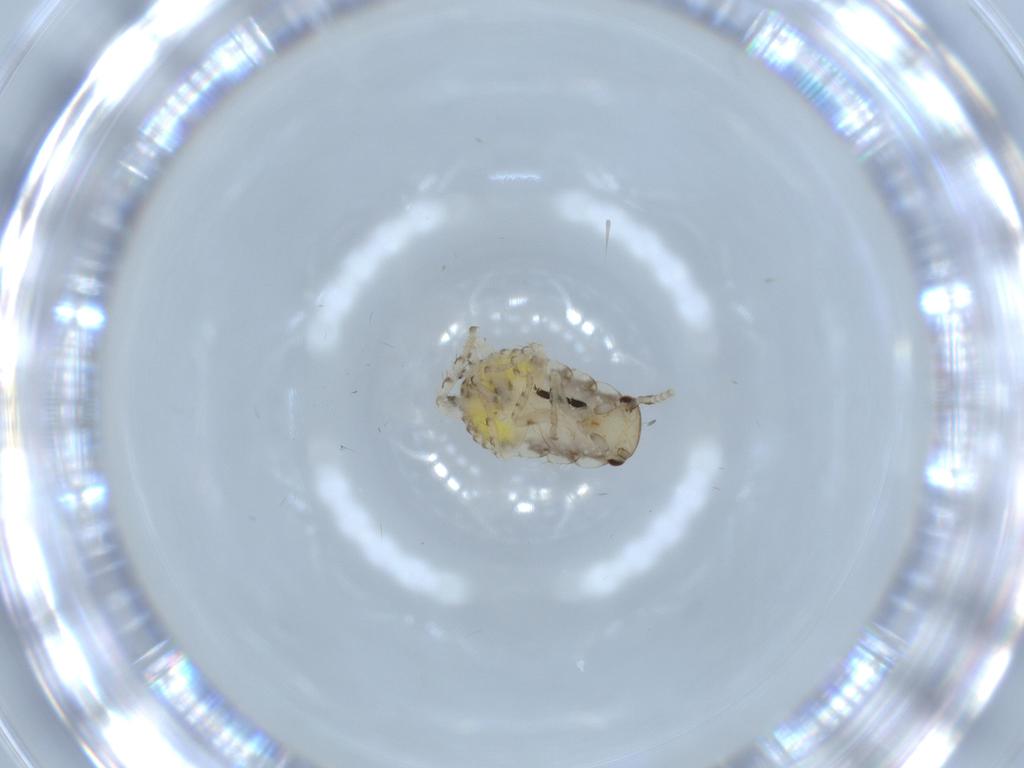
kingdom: Animalia
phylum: Arthropoda
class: Insecta
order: Blattodea
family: Ectobiidae
